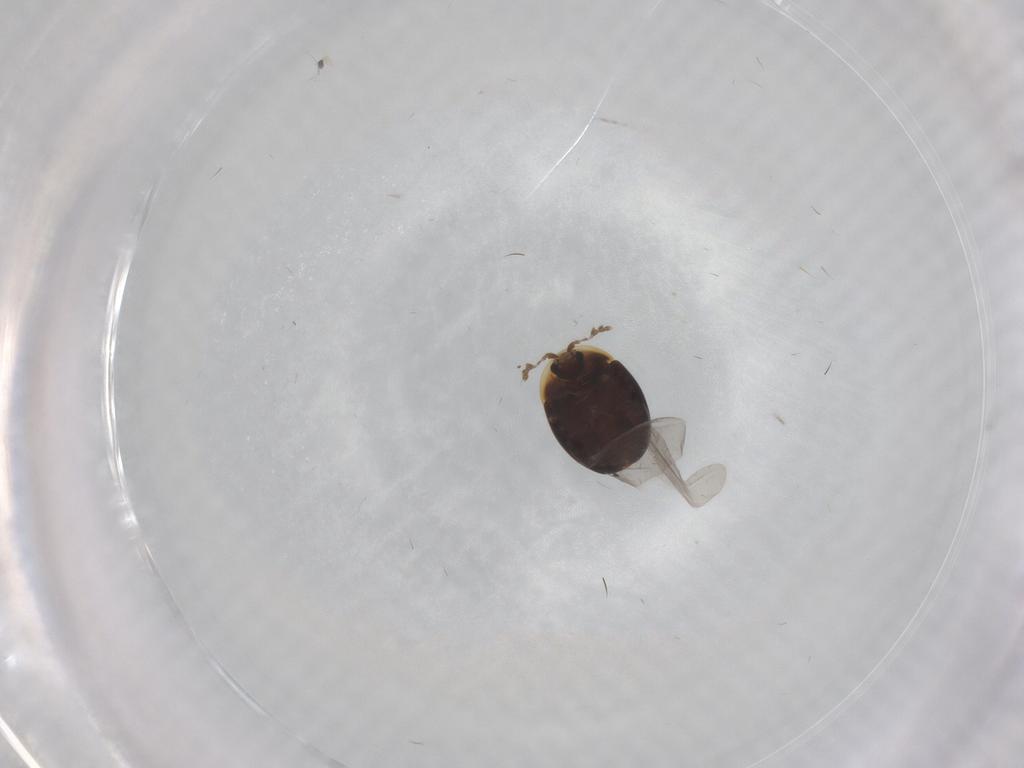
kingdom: Animalia
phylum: Arthropoda
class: Insecta
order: Coleoptera
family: Corylophidae
